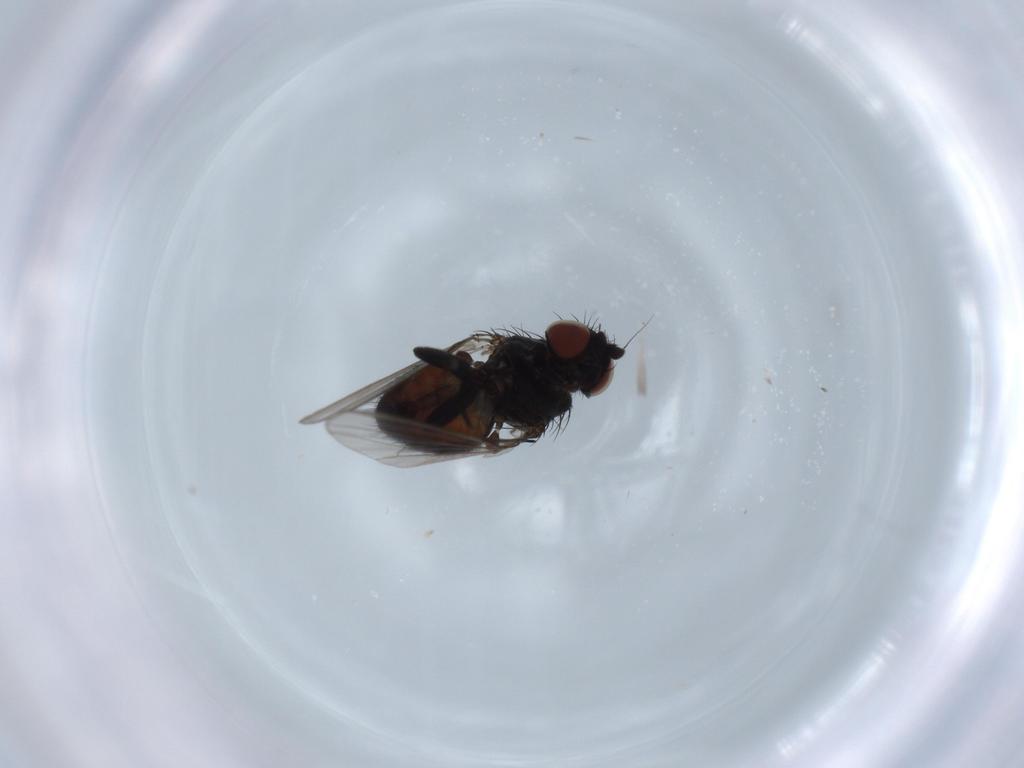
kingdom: Animalia
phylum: Arthropoda
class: Insecta
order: Diptera
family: Milichiidae
